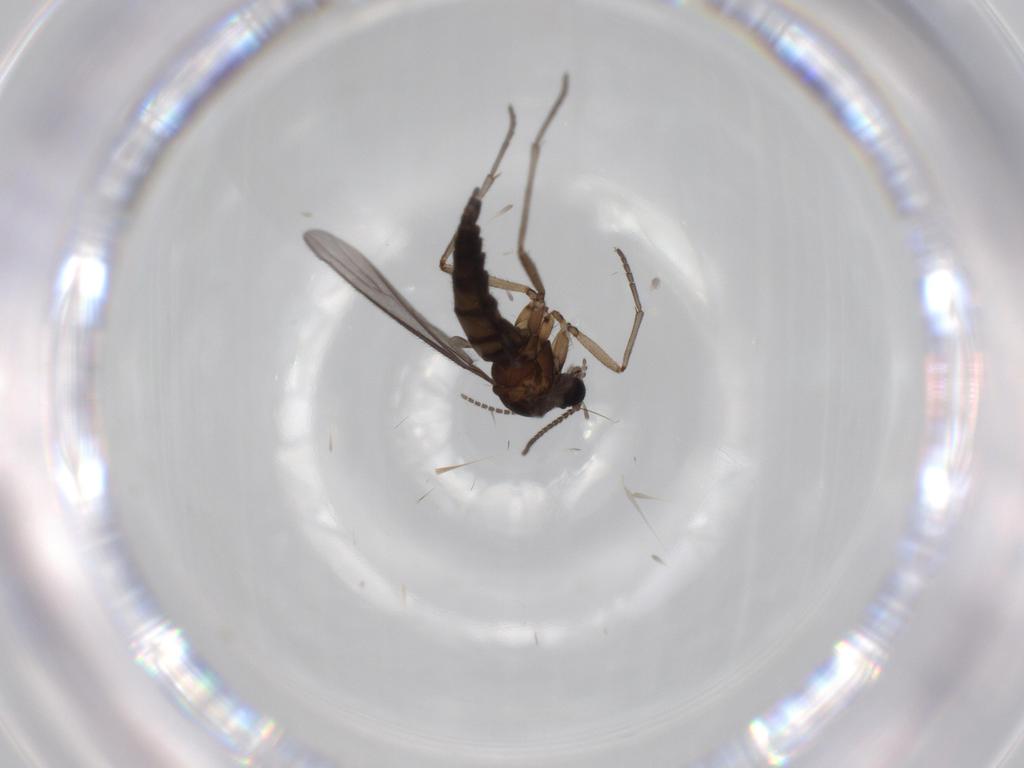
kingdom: Animalia
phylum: Arthropoda
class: Insecta
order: Diptera
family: Sciaridae
